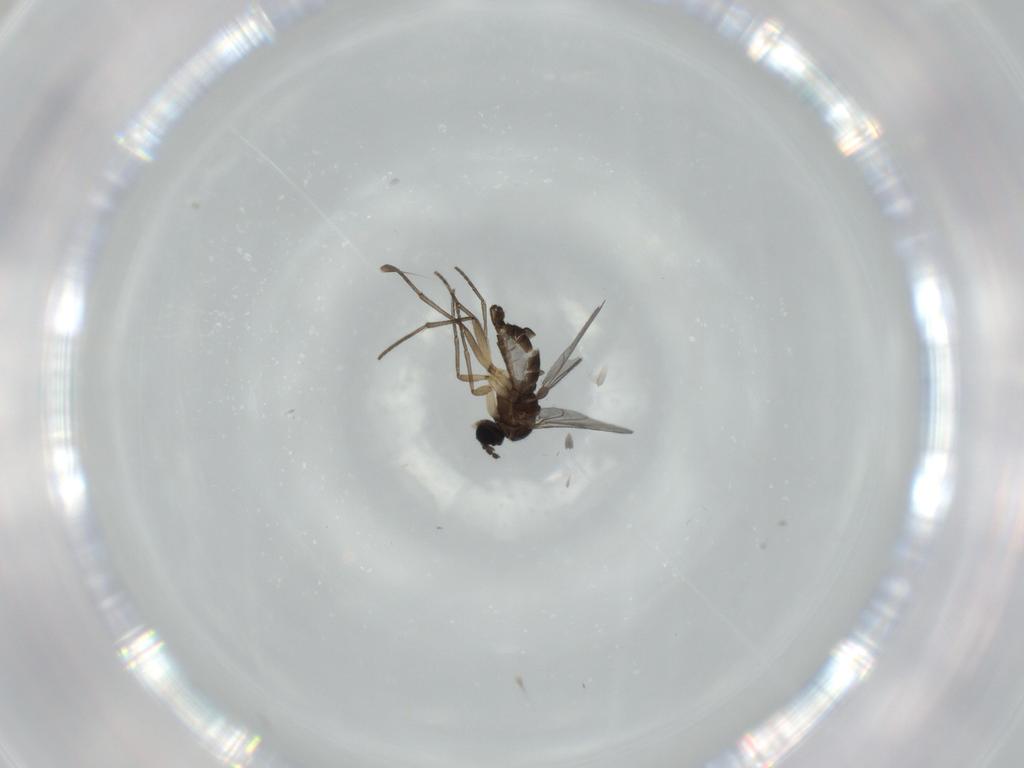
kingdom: Animalia
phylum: Arthropoda
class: Insecta
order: Diptera
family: Sciaridae
